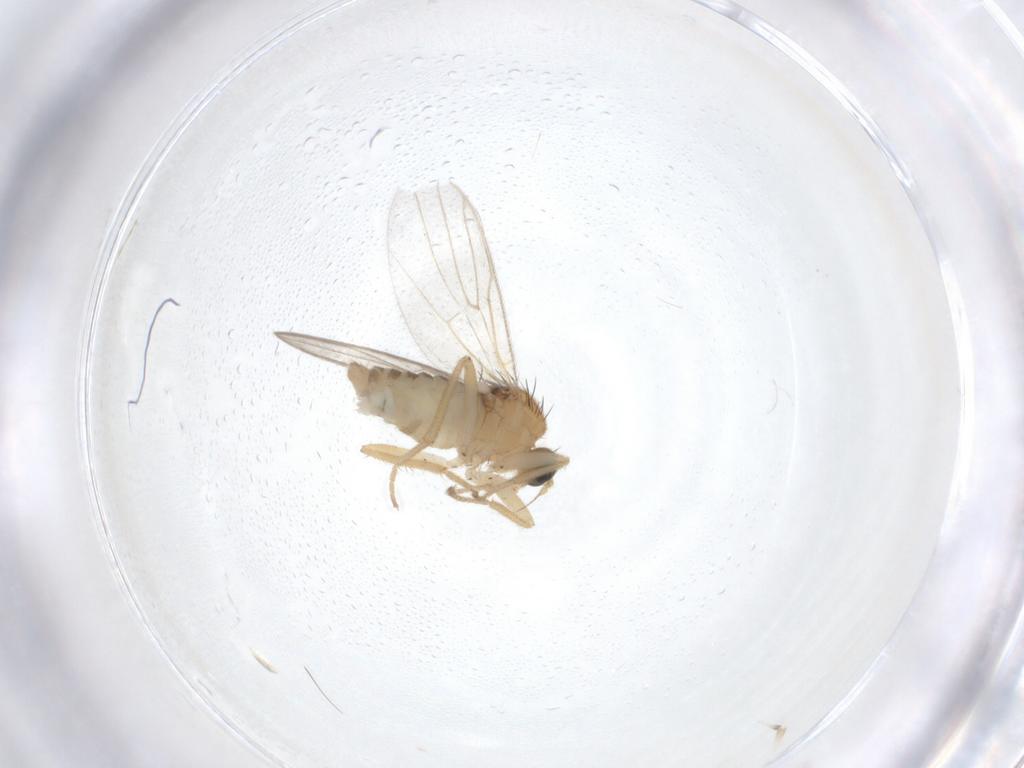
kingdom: Animalia
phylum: Arthropoda
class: Insecta
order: Diptera
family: Hybotidae
